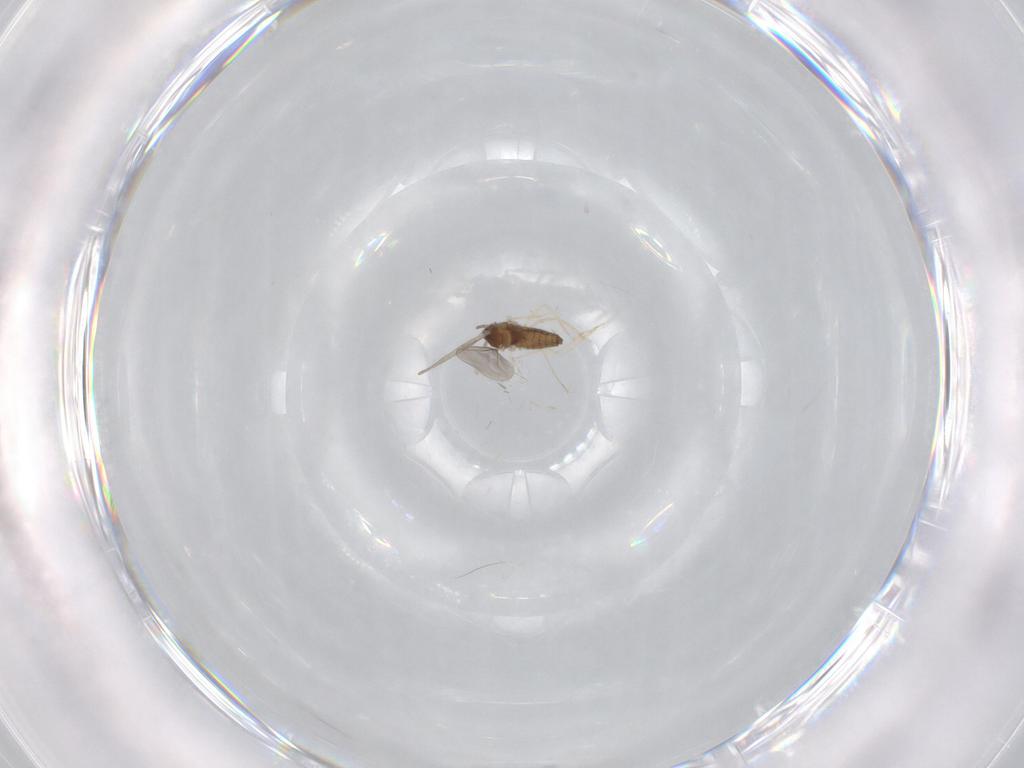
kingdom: Animalia
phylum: Arthropoda
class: Insecta
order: Diptera
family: Cecidomyiidae
